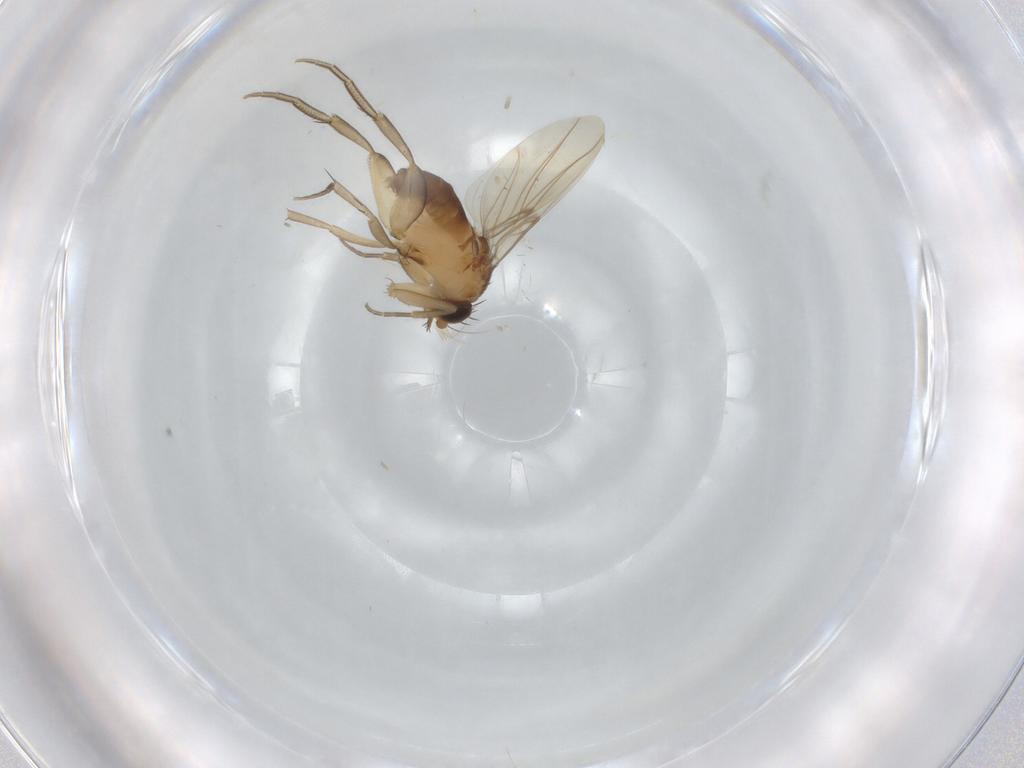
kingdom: Animalia
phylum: Arthropoda
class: Insecta
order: Diptera
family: Phoridae
